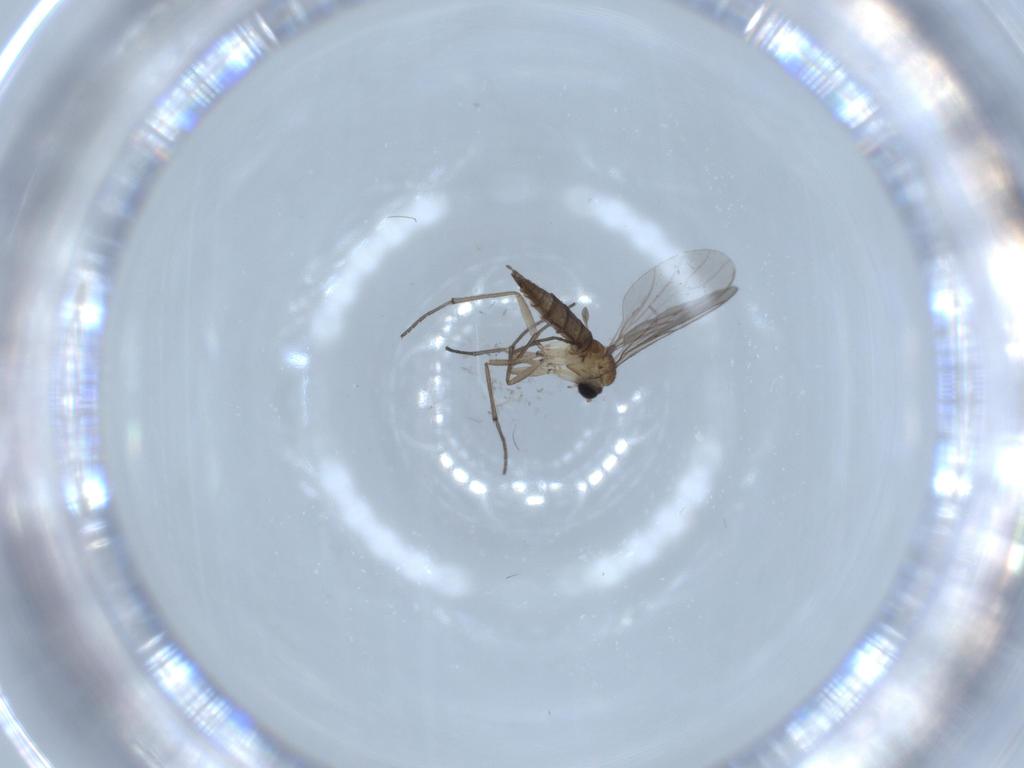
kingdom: Animalia
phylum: Arthropoda
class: Insecta
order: Diptera
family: Sciaridae
